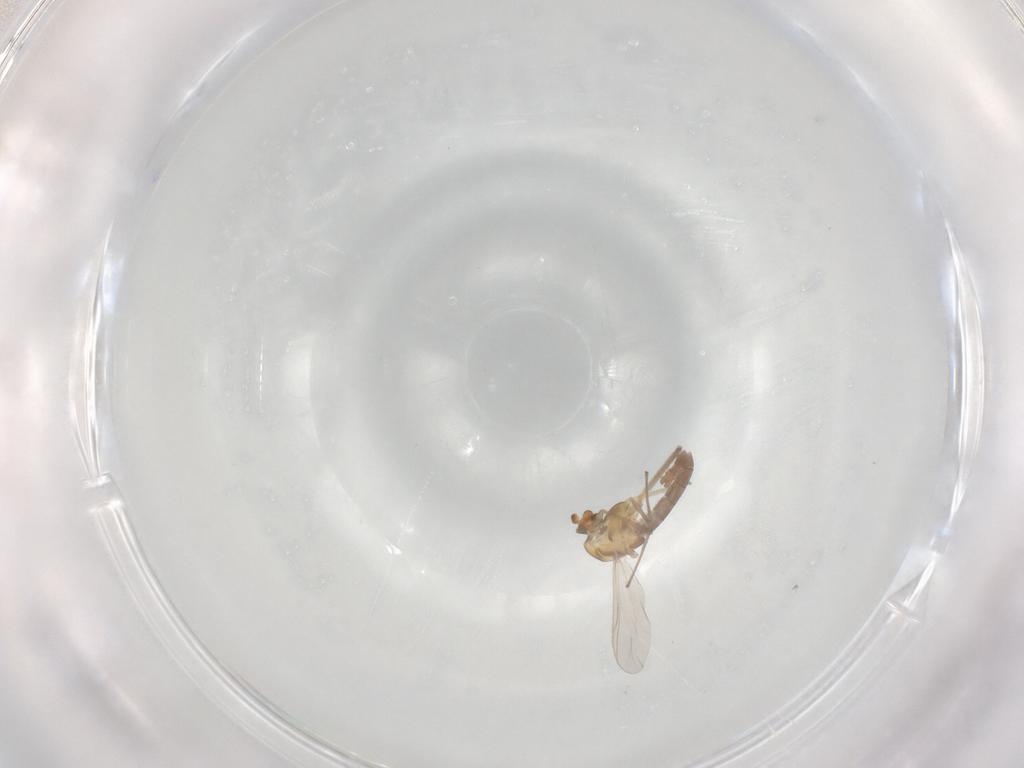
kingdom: Animalia
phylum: Arthropoda
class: Insecta
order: Diptera
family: Chironomidae
